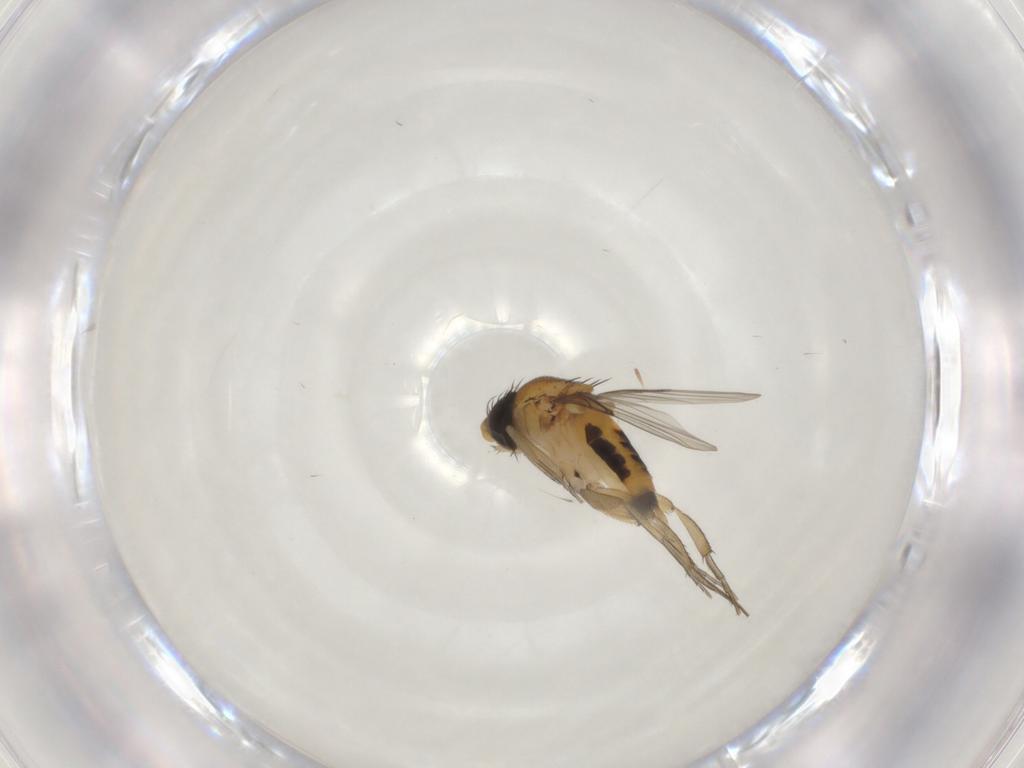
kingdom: Animalia
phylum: Arthropoda
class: Insecta
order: Diptera
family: Phoridae
